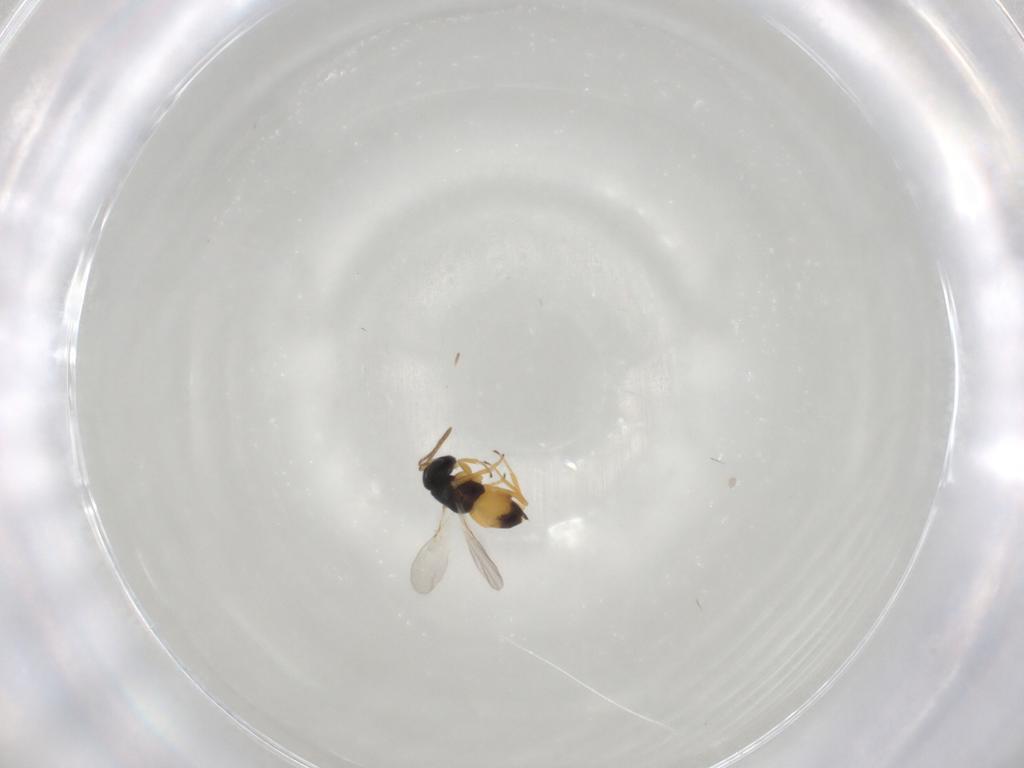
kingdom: Animalia
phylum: Arthropoda
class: Insecta
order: Hymenoptera
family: Encyrtidae
